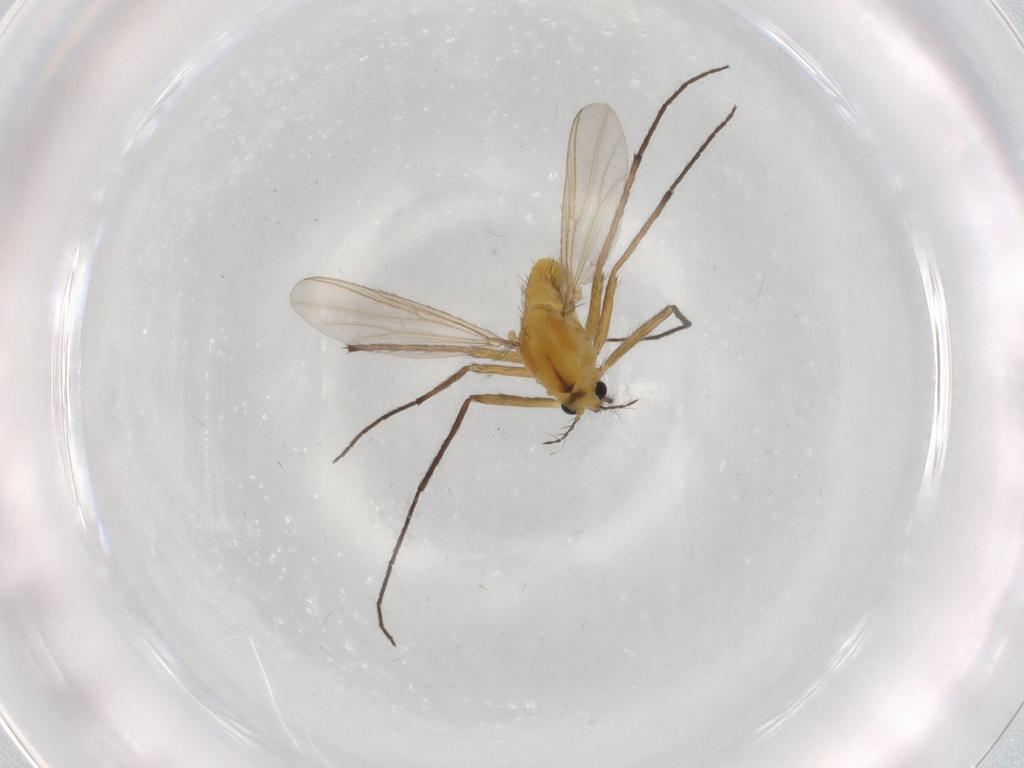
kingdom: Animalia
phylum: Arthropoda
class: Insecta
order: Diptera
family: Chironomidae
